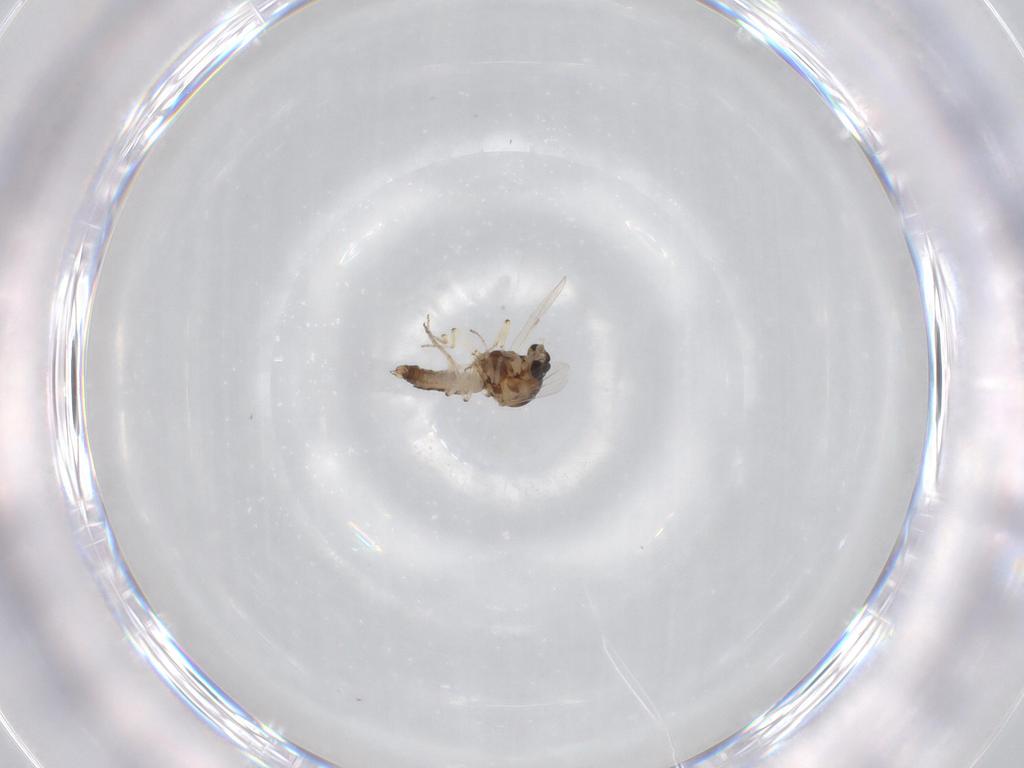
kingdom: Animalia
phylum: Arthropoda
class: Insecta
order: Diptera
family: Ceratopogonidae
